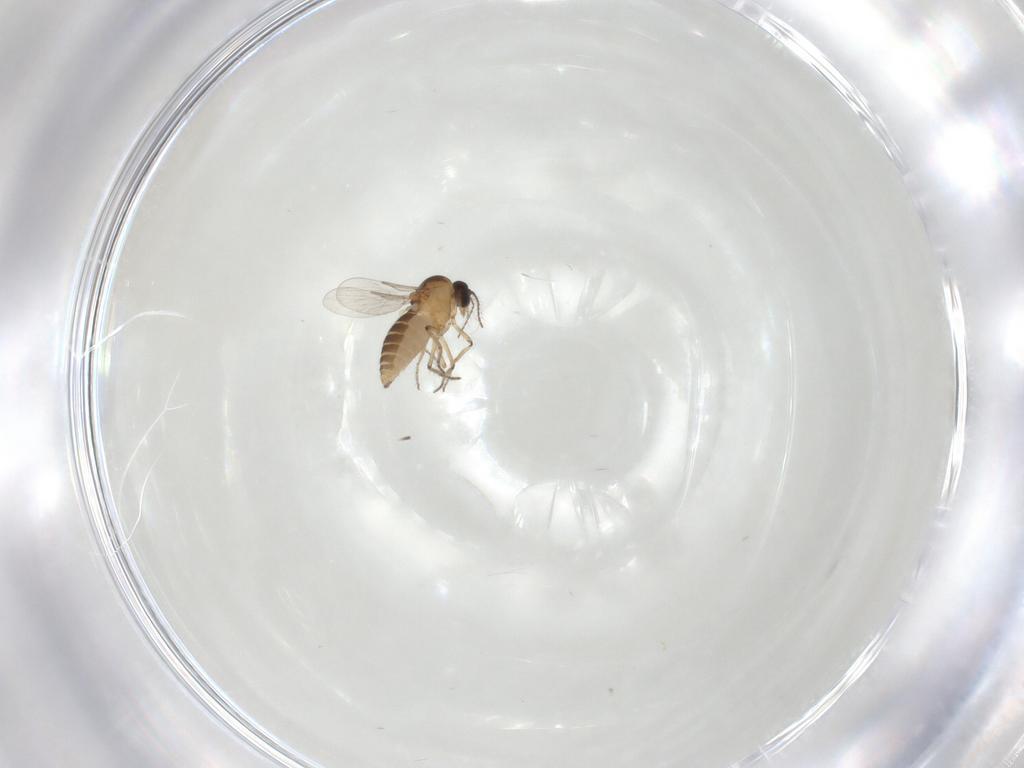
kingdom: Animalia
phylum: Arthropoda
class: Insecta
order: Diptera
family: Ceratopogonidae
